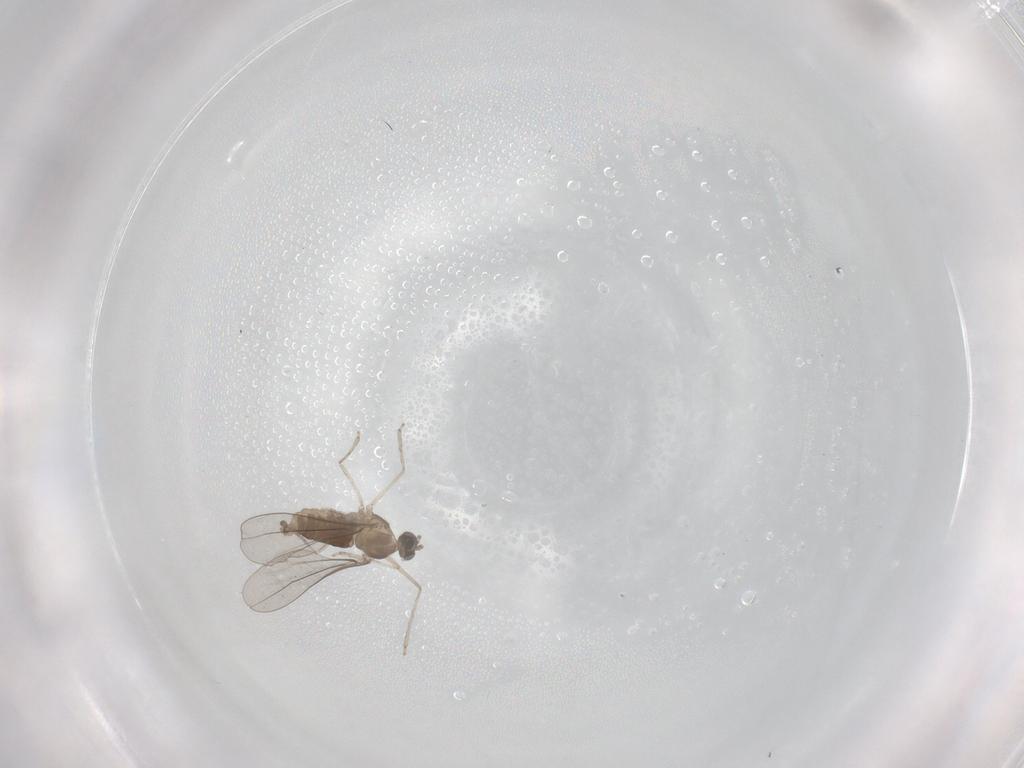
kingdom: Animalia
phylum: Arthropoda
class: Insecta
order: Diptera
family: Cecidomyiidae
